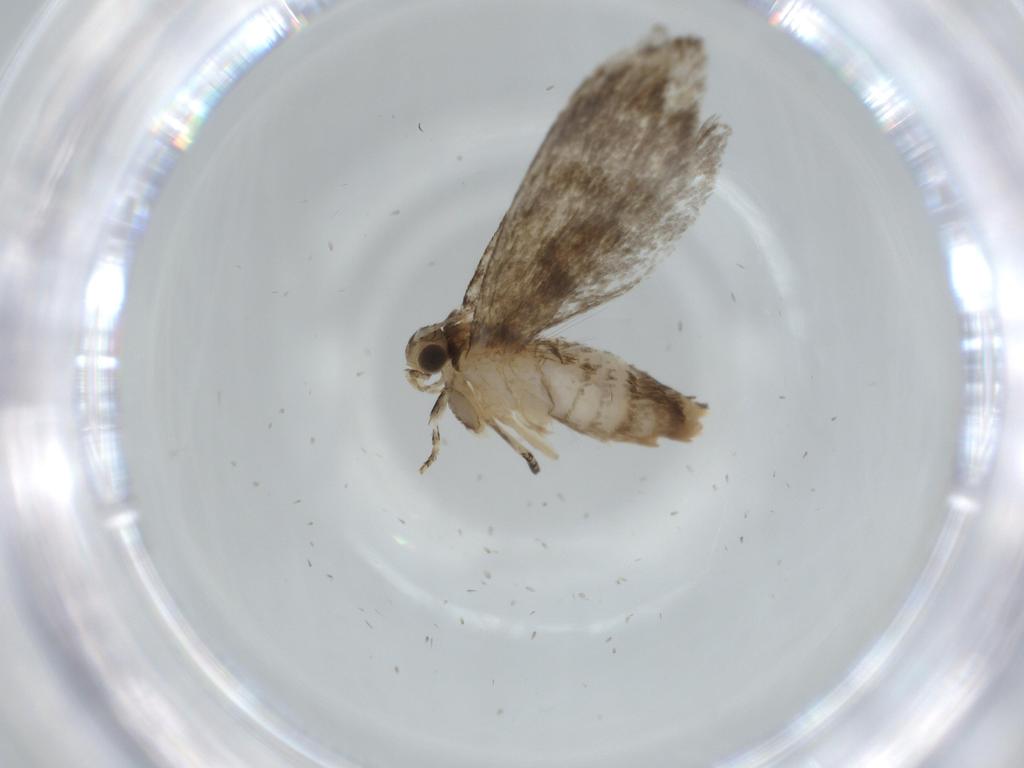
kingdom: Animalia
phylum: Arthropoda
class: Insecta
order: Lepidoptera
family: Tineidae
